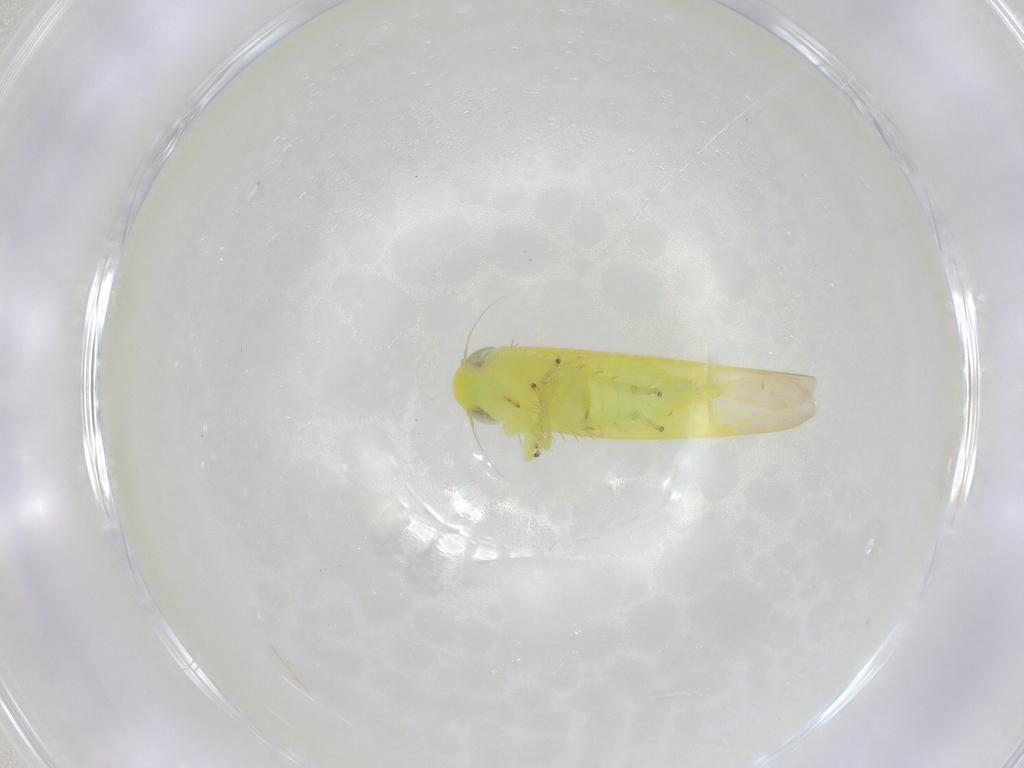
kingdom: Animalia
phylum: Arthropoda
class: Insecta
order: Hemiptera
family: Cicadellidae
